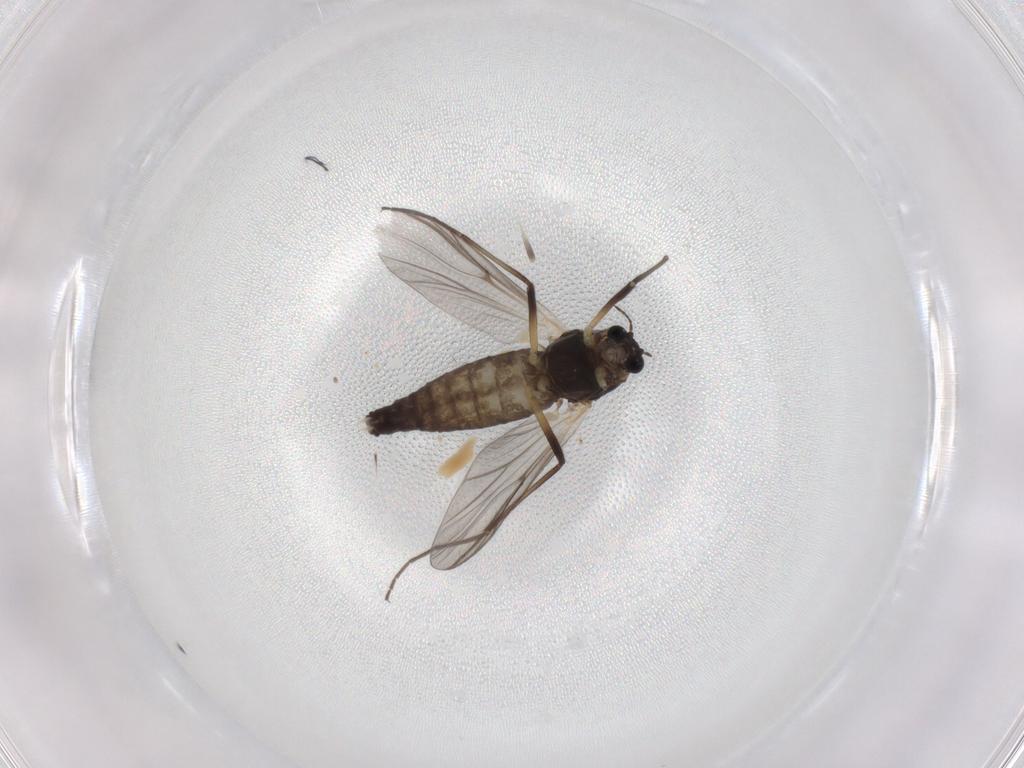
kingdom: Animalia
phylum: Arthropoda
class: Insecta
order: Diptera
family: Chironomidae
